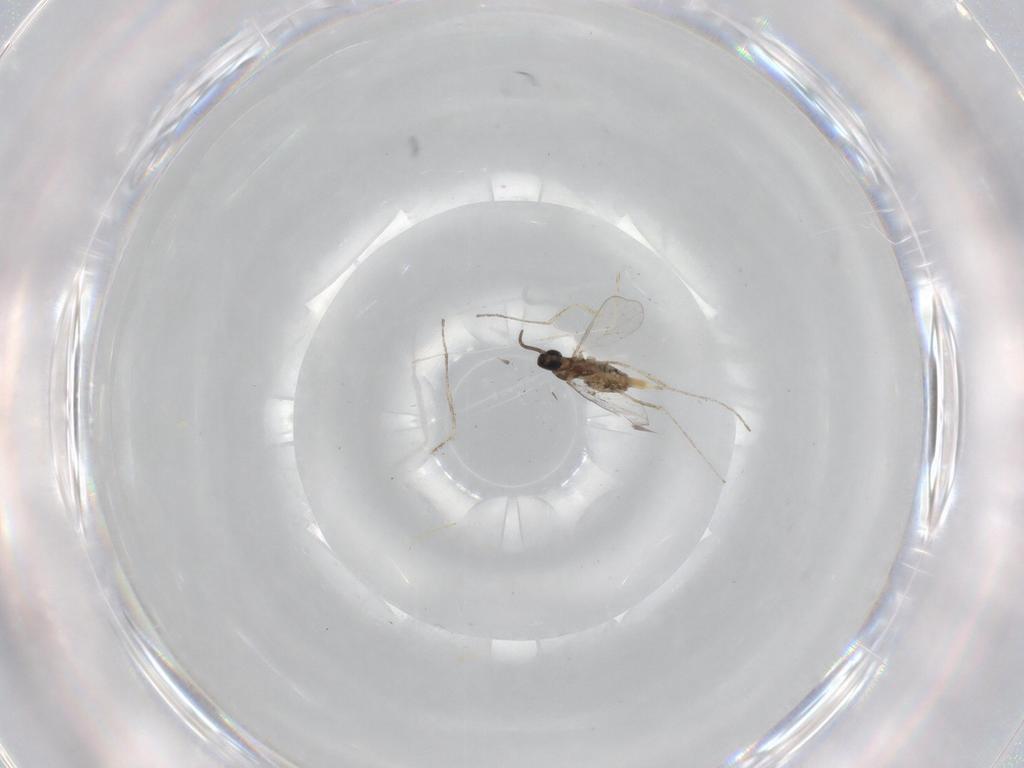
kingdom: Animalia
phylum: Arthropoda
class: Insecta
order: Diptera
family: Cecidomyiidae
